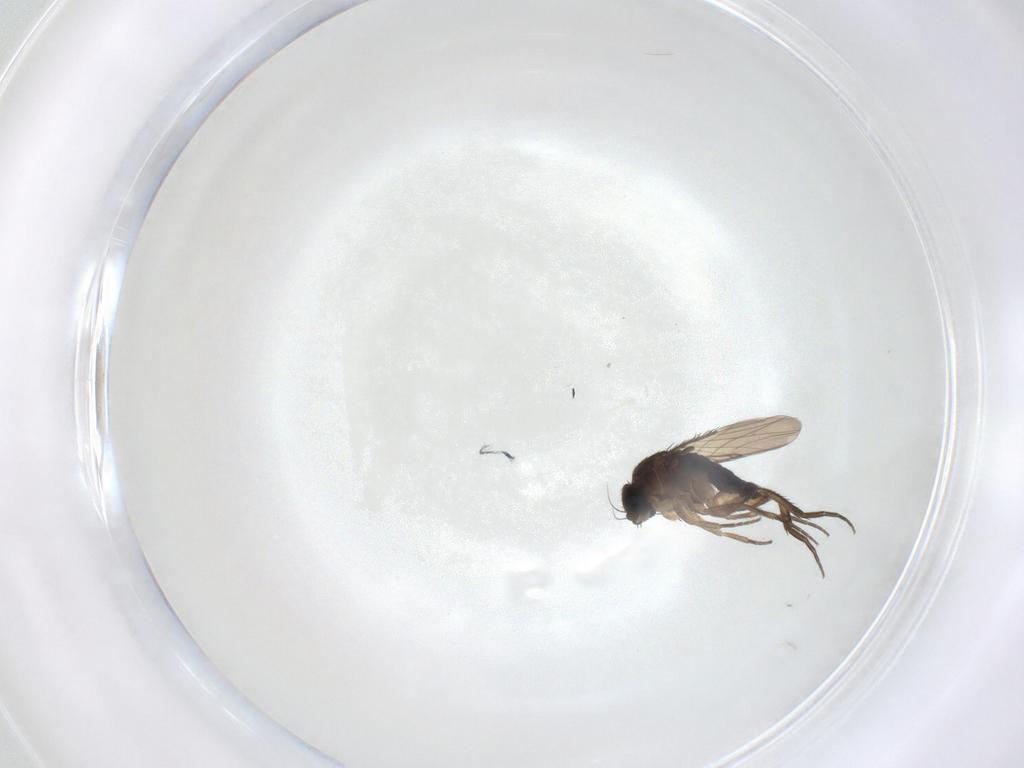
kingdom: Animalia
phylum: Arthropoda
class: Insecta
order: Diptera
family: Phoridae
